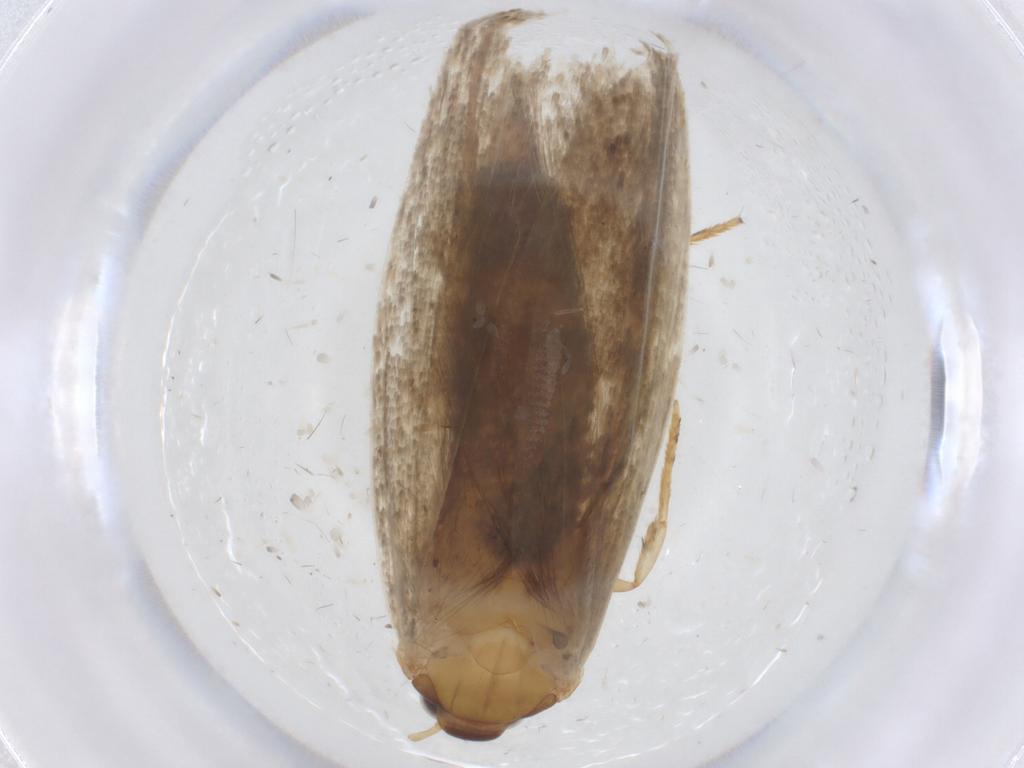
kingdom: Animalia
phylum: Arthropoda
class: Insecta
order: Lepidoptera
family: Oecophoridae
